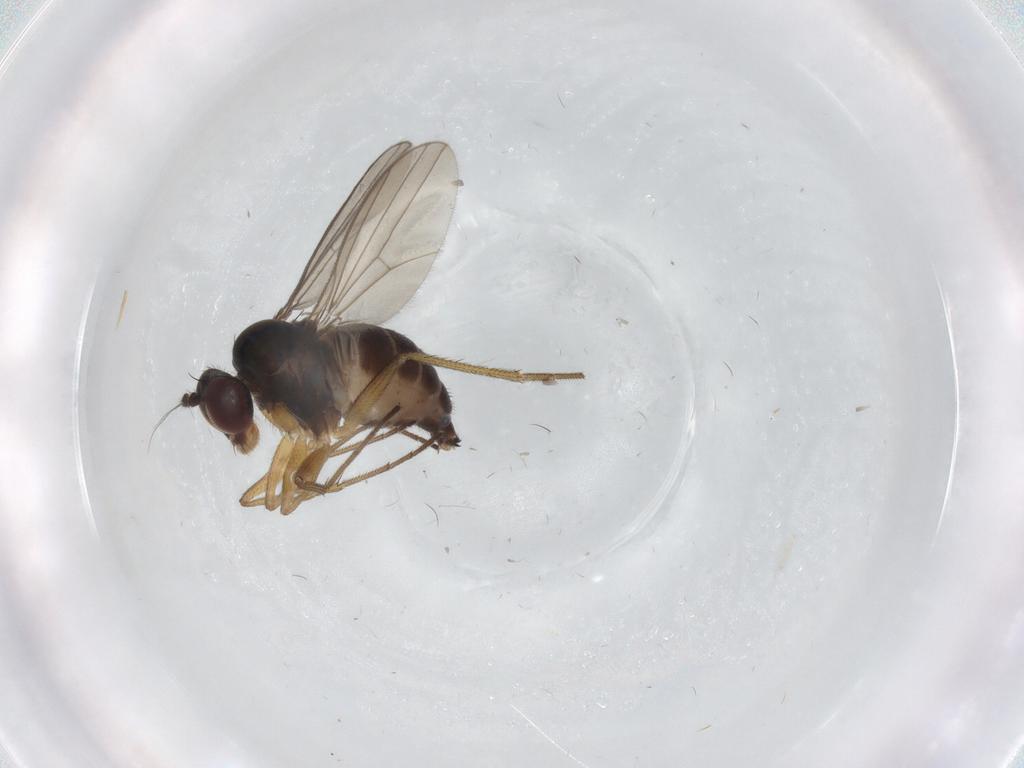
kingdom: Animalia
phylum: Arthropoda
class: Insecta
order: Diptera
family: Dolichopodidae
